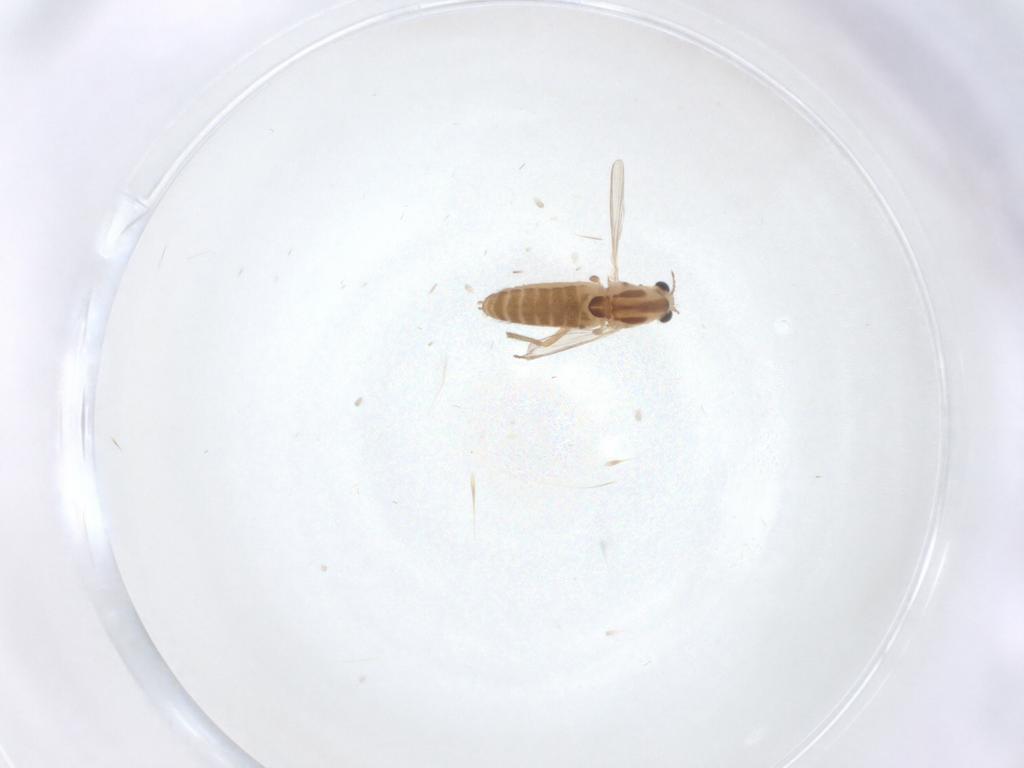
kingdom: Animalia
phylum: Arthropoda
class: Insecta
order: Diptera
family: Chironomidae
